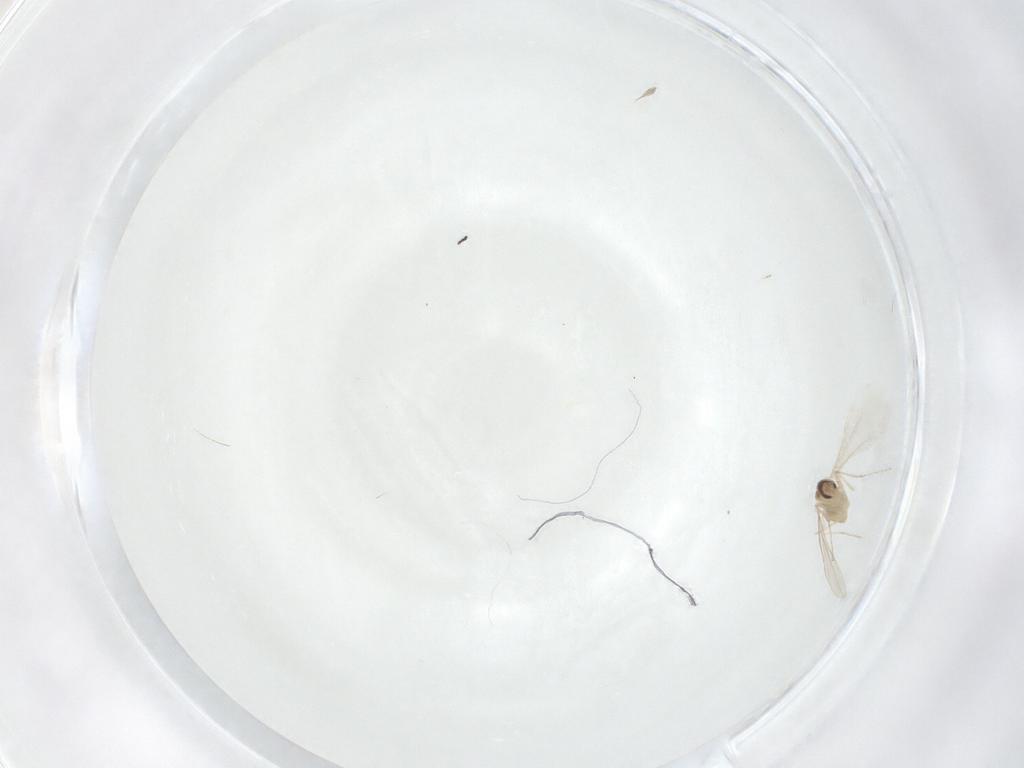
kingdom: Animalia
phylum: Arthropoda
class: Insecta
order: Diptera
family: Cecidomyiidae
